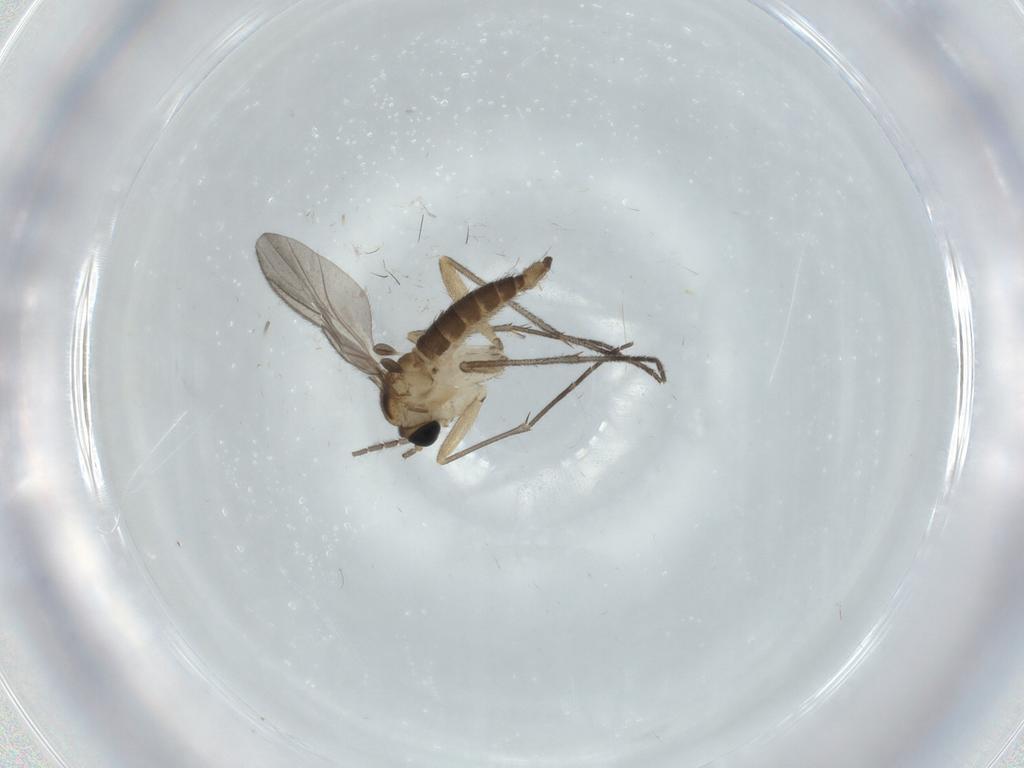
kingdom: Animalia
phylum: Arthropoda
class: Insecta
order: Diptera
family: Sciaridae
